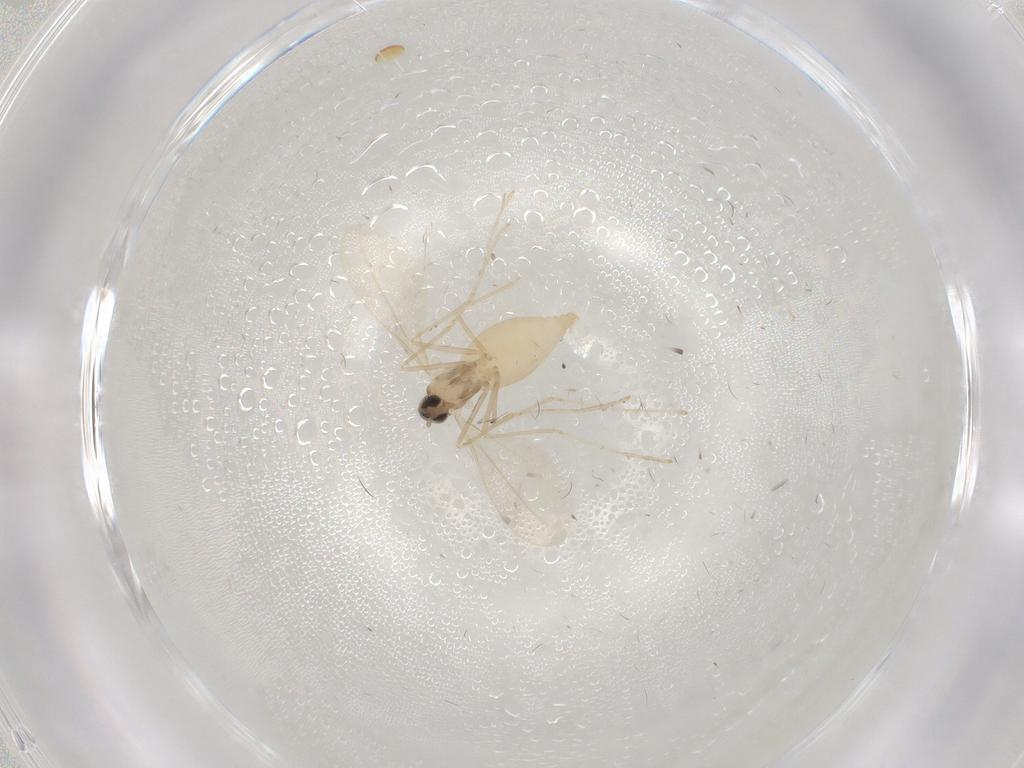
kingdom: Animalia
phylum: Arthropoda
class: Insecta
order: Diptera
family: Cecidomyiidae
